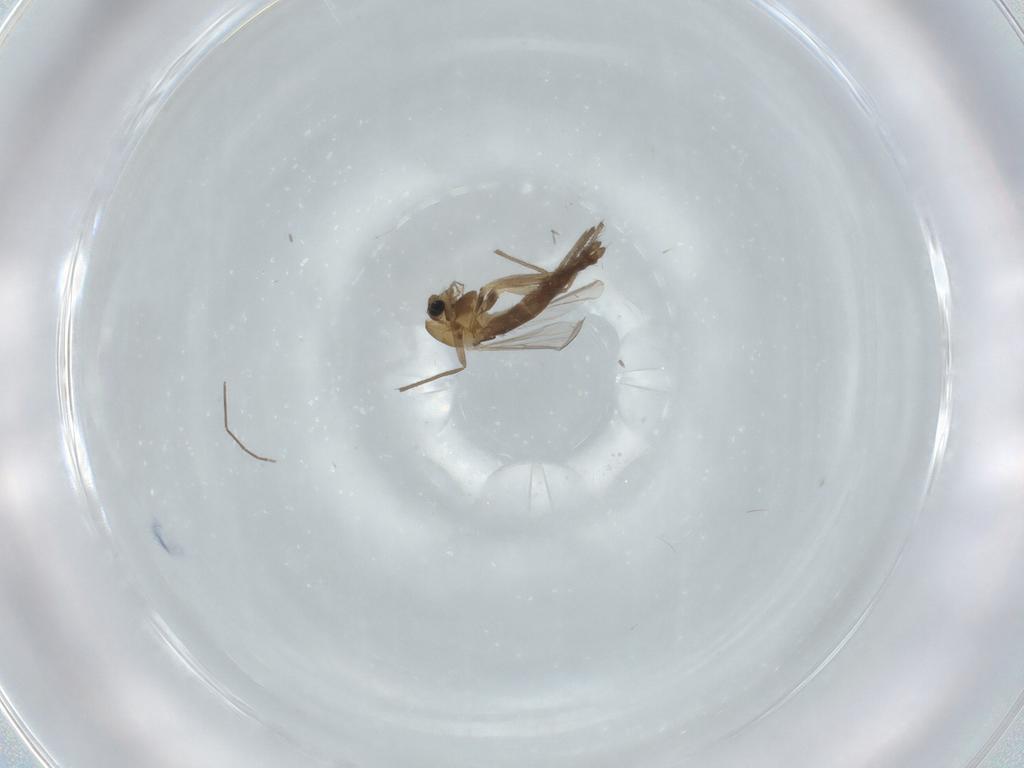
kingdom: Animalia
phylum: Arthropoda
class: Insecta
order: Diptera
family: Chironomidae
